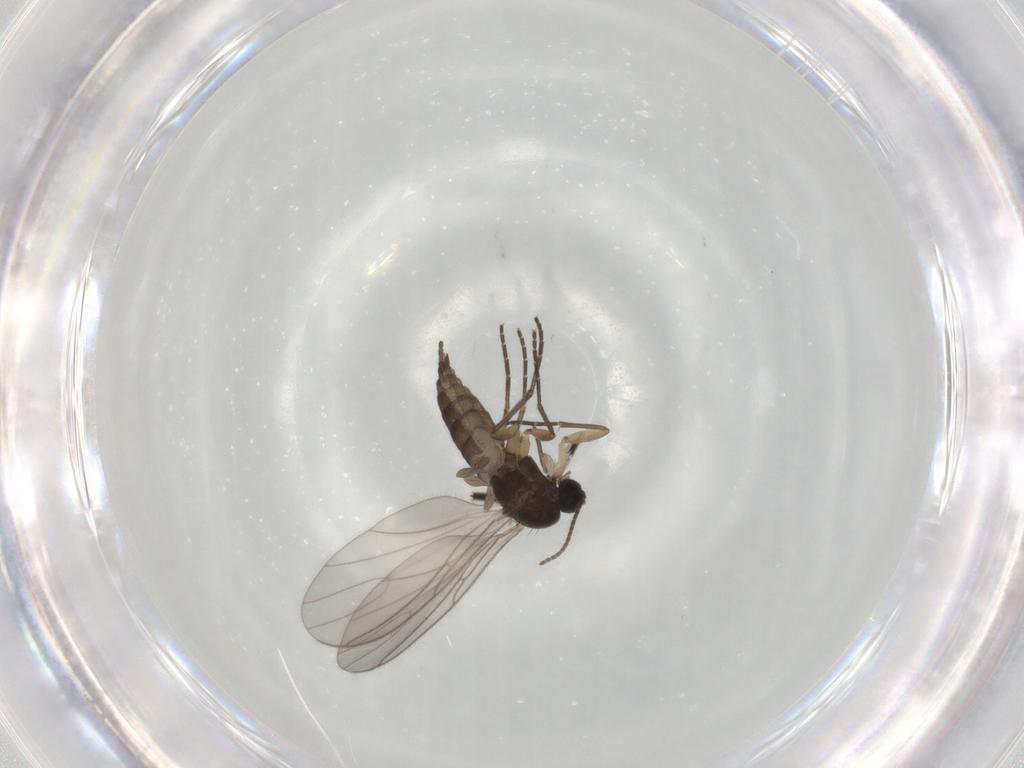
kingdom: Animalia
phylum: Arthropoda
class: Insecta
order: Diptera
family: Sciaridae
